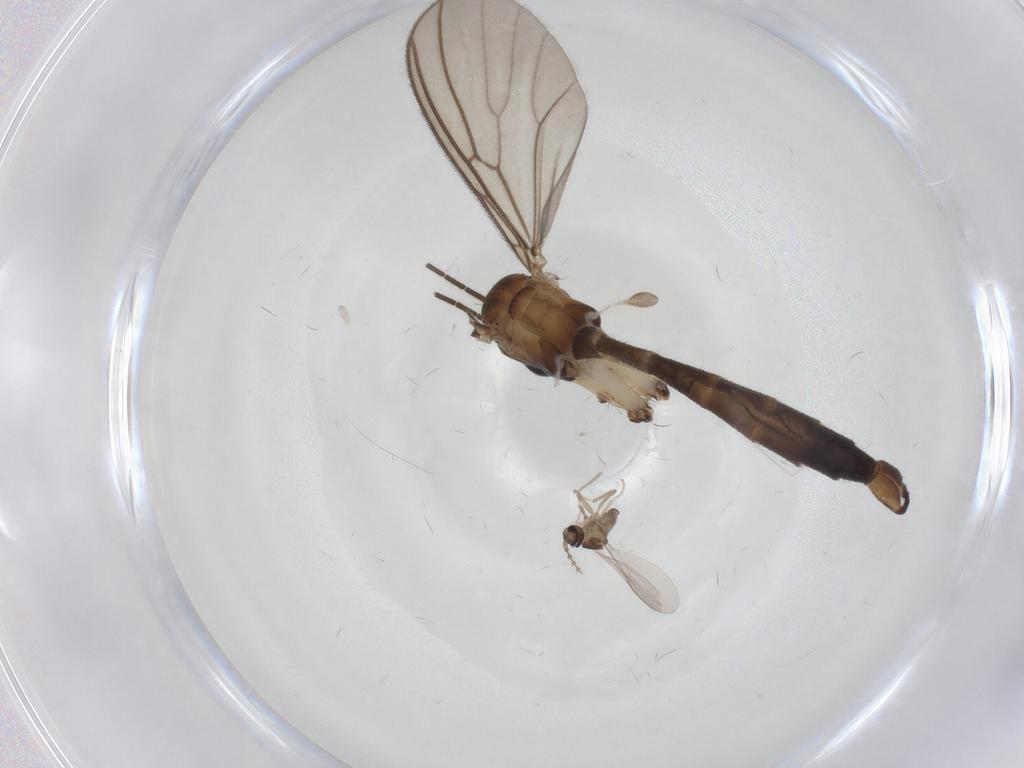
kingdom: Animalia
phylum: Arthropoda
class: Insecta
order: Diptera
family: Mycetophilidae
